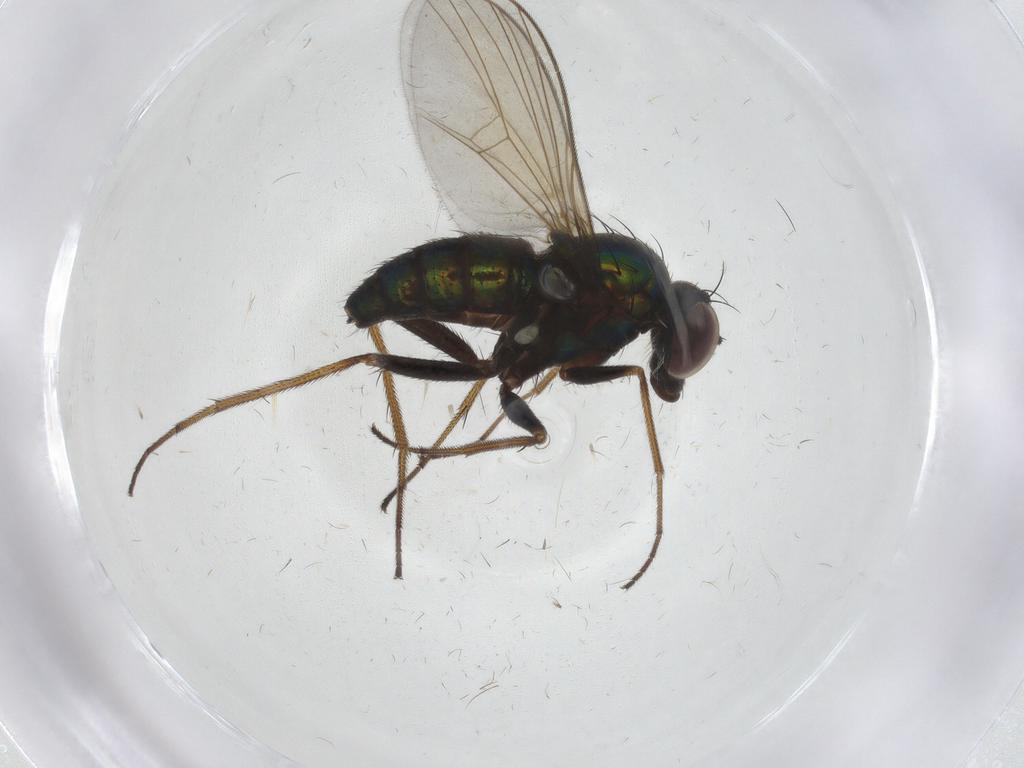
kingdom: Animalia
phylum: Arthropoda
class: Insecta
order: Diptera
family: Dolichopodidae
